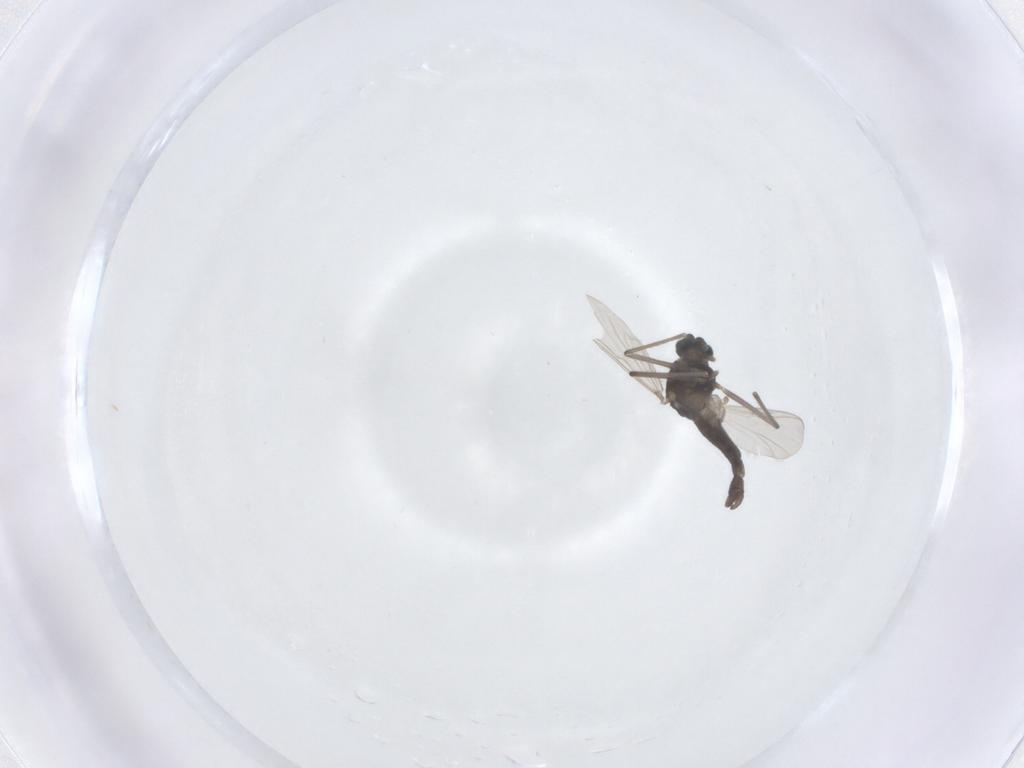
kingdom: Animalia
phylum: Arthropoda
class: Insecta
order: Diptera
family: Chironomidae
